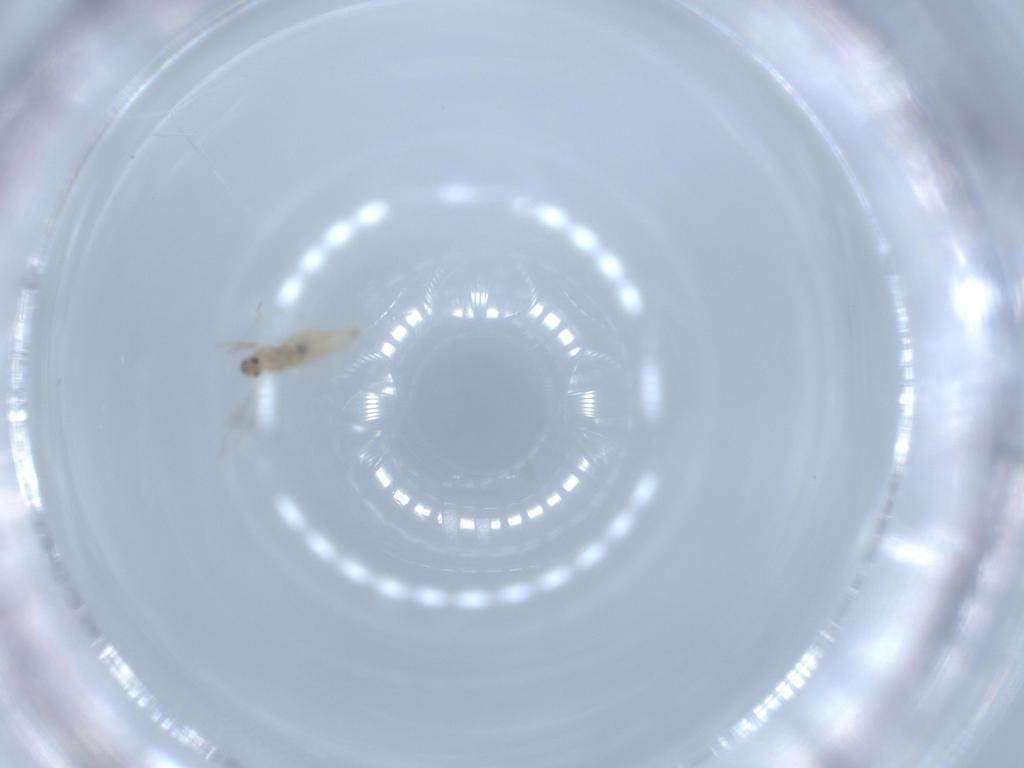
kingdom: Animalia
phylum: Arthropoda
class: Insecta
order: Diptera
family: Cecidomyiidae
